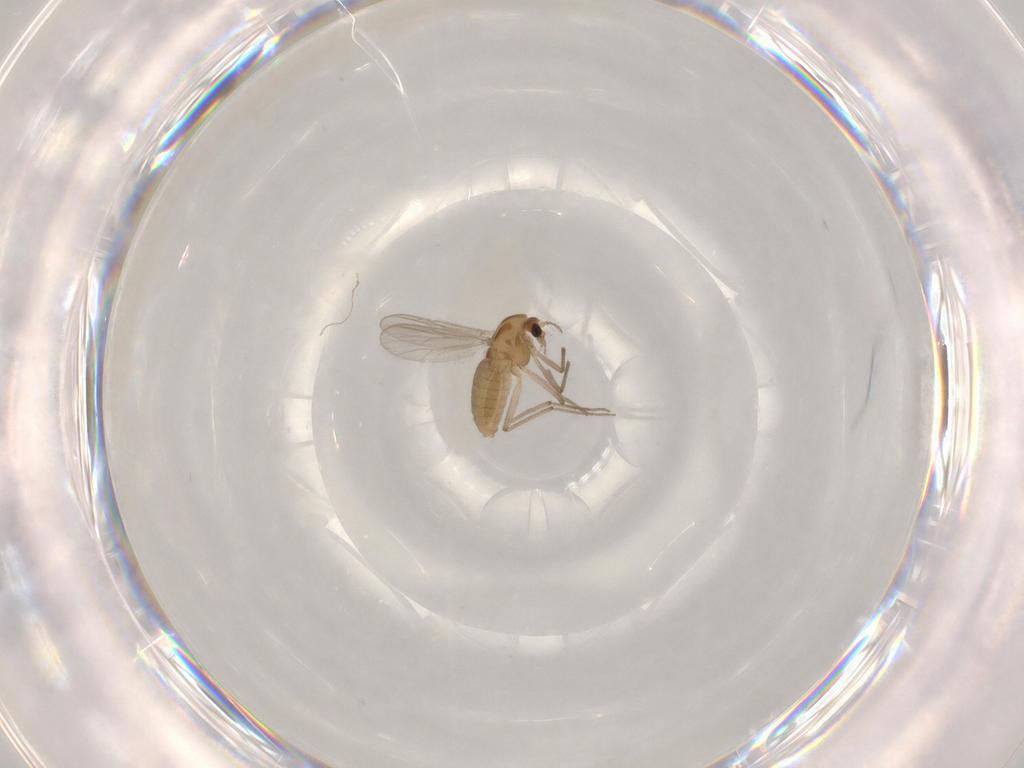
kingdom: Animalia
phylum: Arthropoda
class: Insecta
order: Diptera
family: Chironomidae
